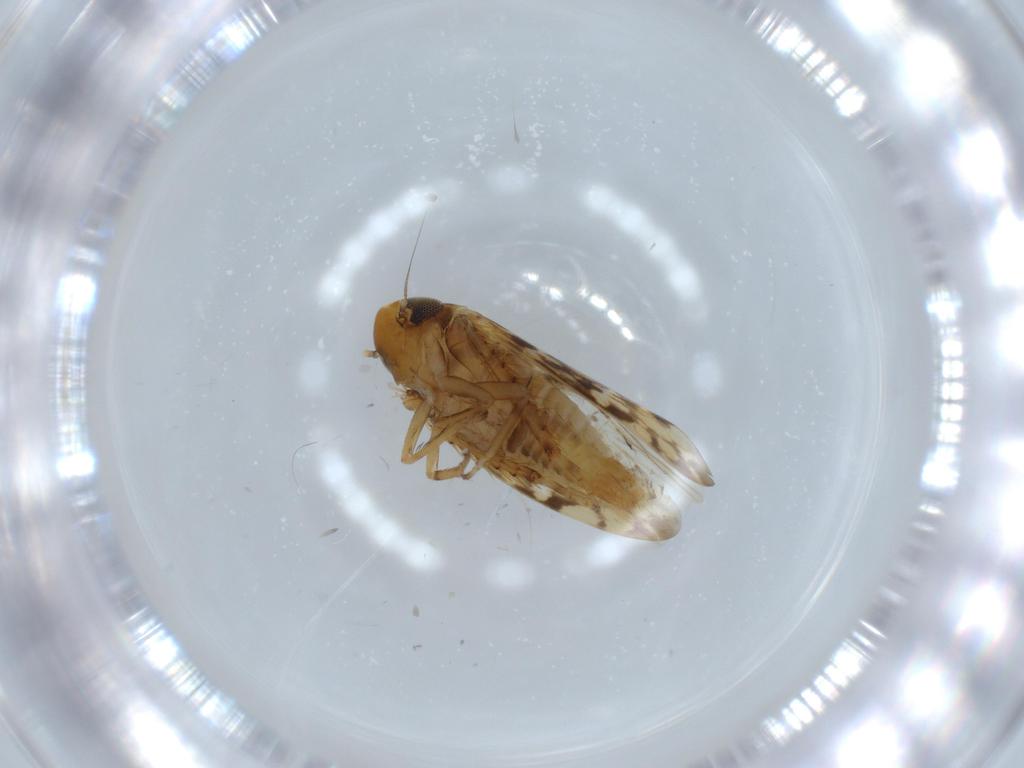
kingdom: Animalia
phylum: Arthropoda
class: Insecta
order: Hemiptera
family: Cicadellidae
